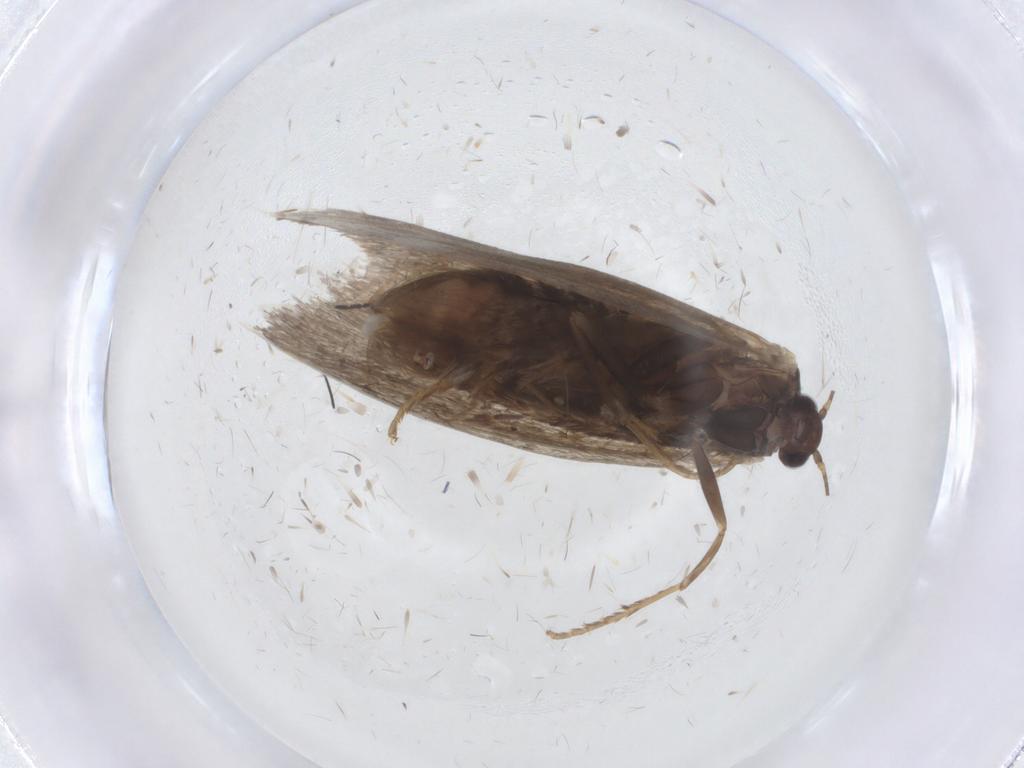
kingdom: Animalia
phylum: Arthropoda
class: Insecta
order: Lepidoptera
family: Psychidae
